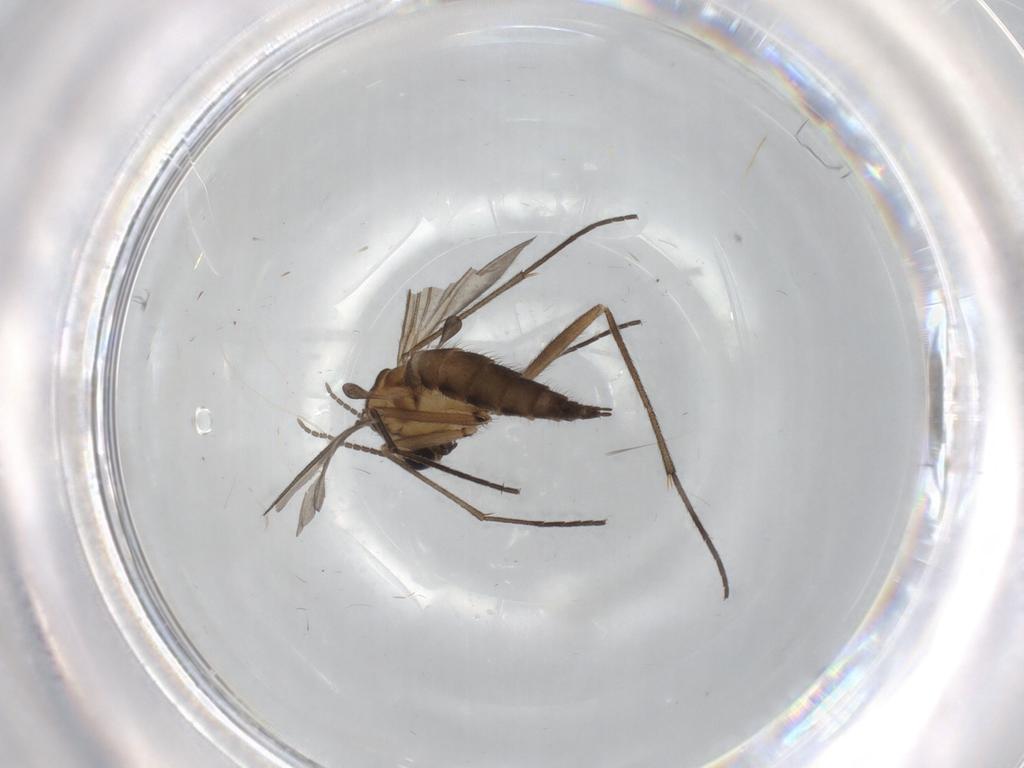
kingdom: Animalia
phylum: Arthropoda
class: Insecta
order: Diptera
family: Sciaridae
